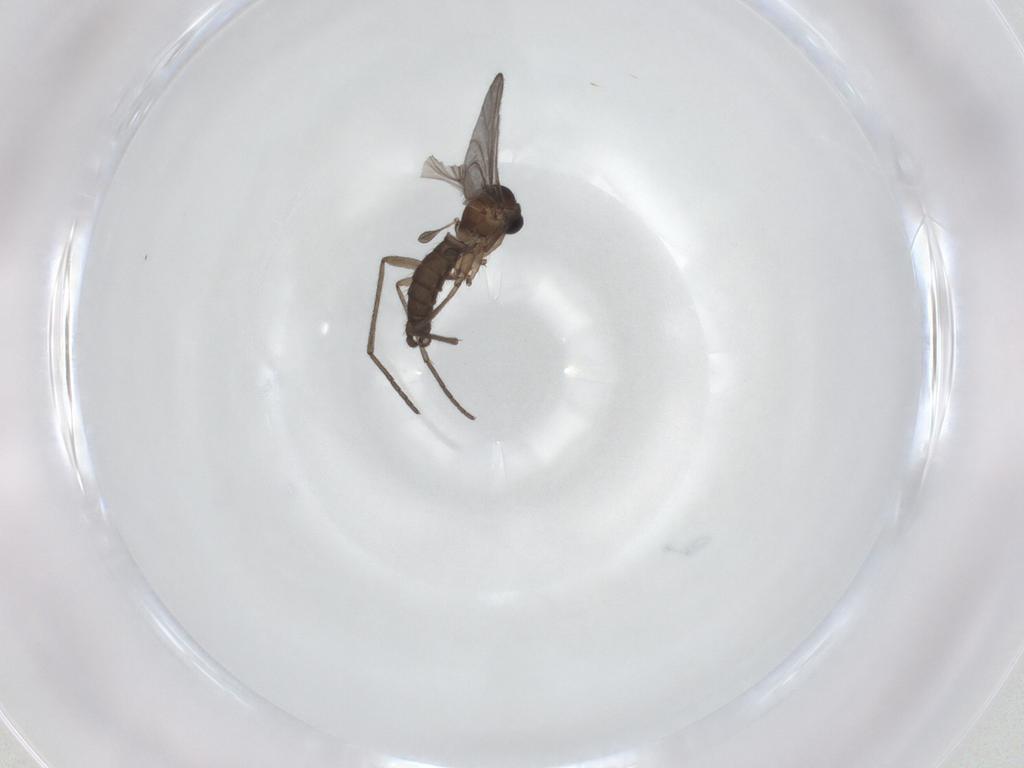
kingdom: Animalia
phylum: Arthropoda
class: Insecta
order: Diptera
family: Sciaridae
